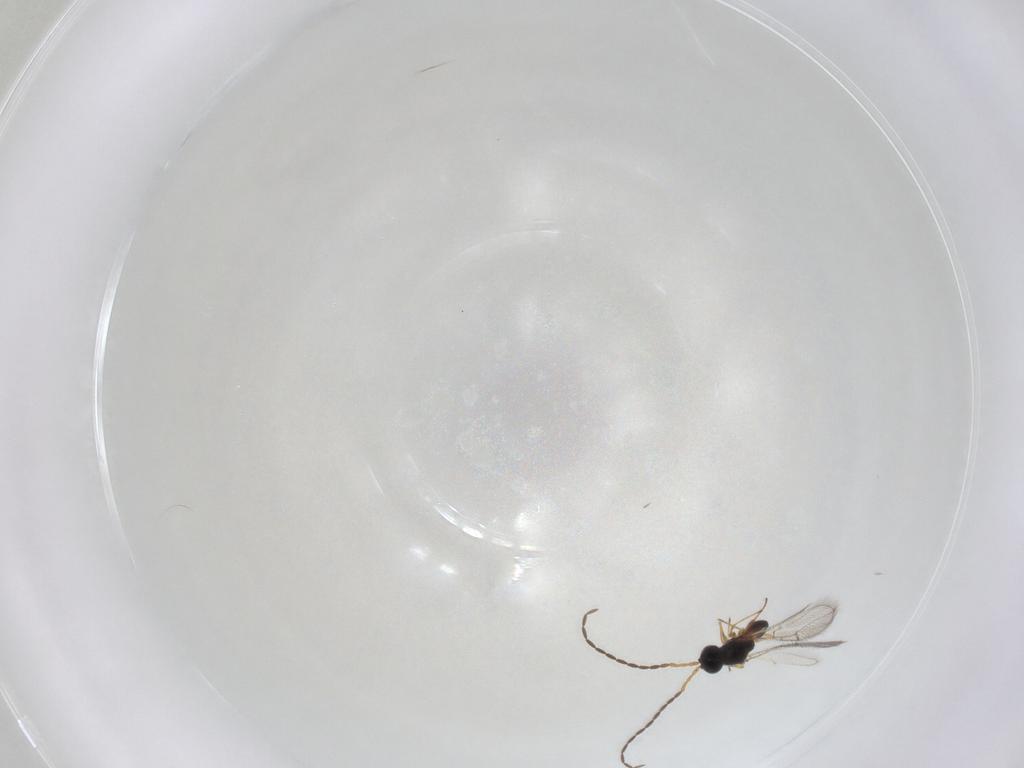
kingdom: Animalia
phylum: Arthropoda
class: Insecta
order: Hymenoptera
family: Figitidae
